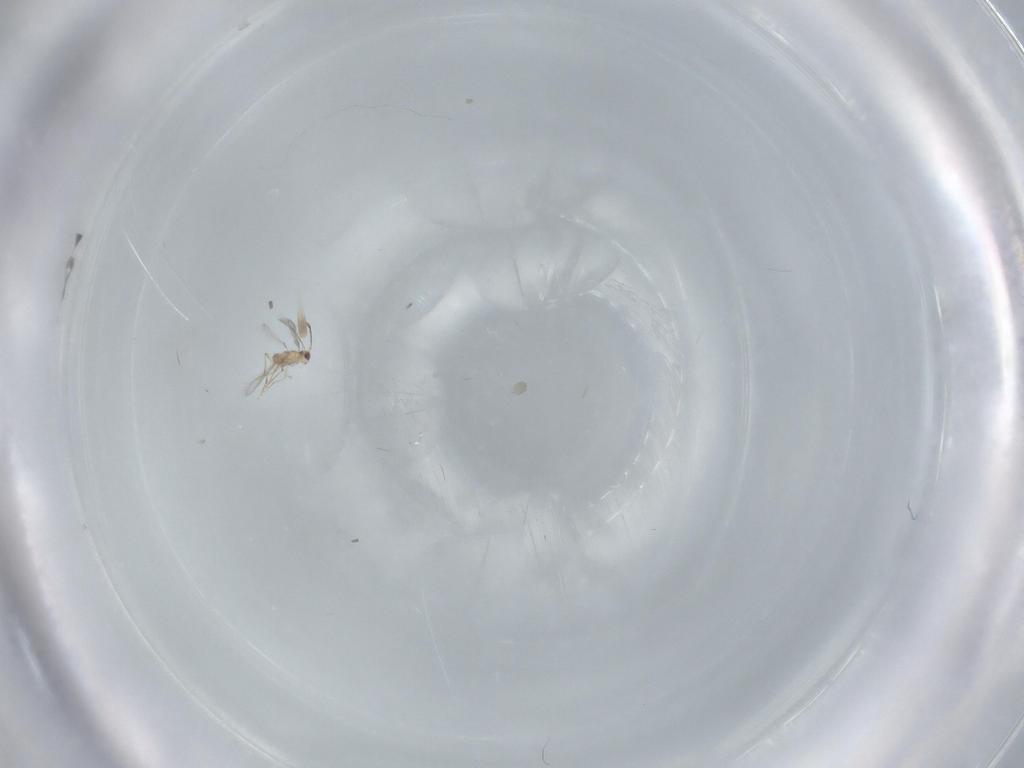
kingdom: Animalia
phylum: Arthropoda
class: Insecta
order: Hymenoptera
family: Mymaridae
